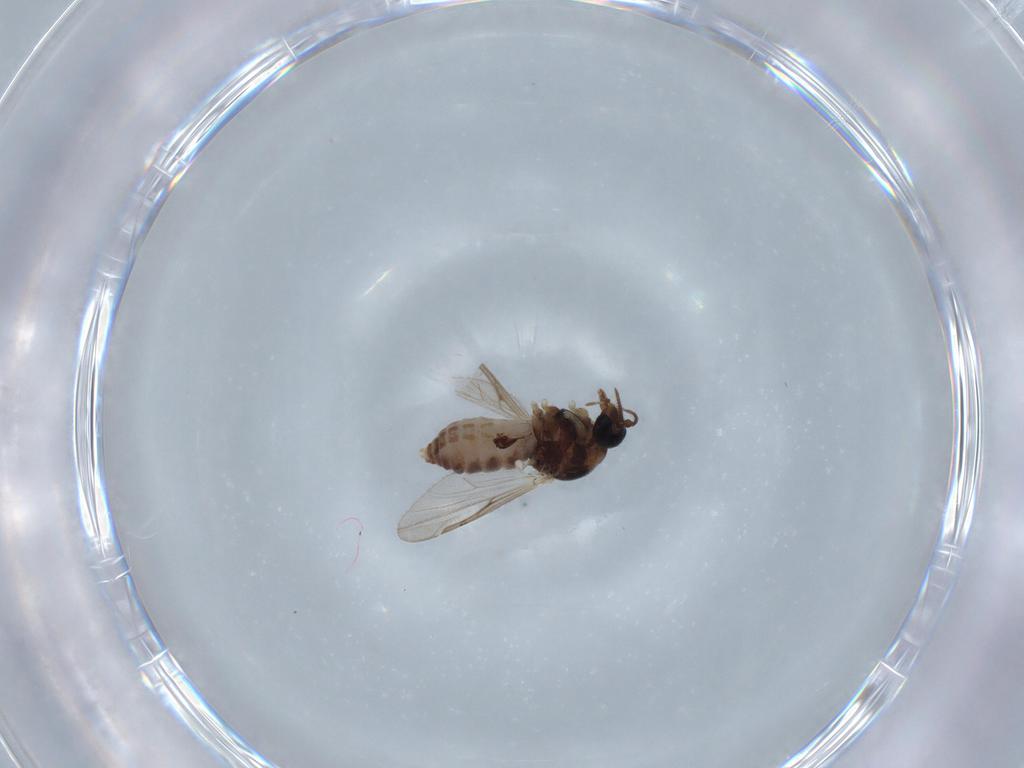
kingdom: Animalia
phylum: Arthropoda
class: Insecta
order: Diptera
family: Ceratopogonidae
